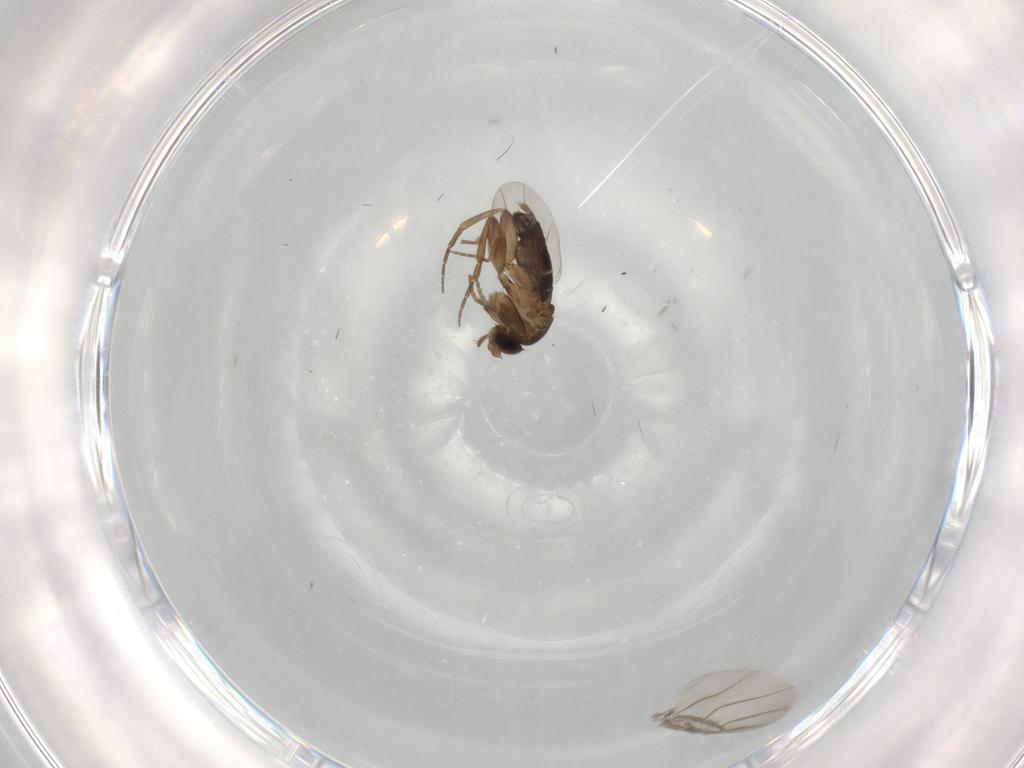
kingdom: Animalia
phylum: Arthropoda
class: Insecta
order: Diptera
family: Phoridae
